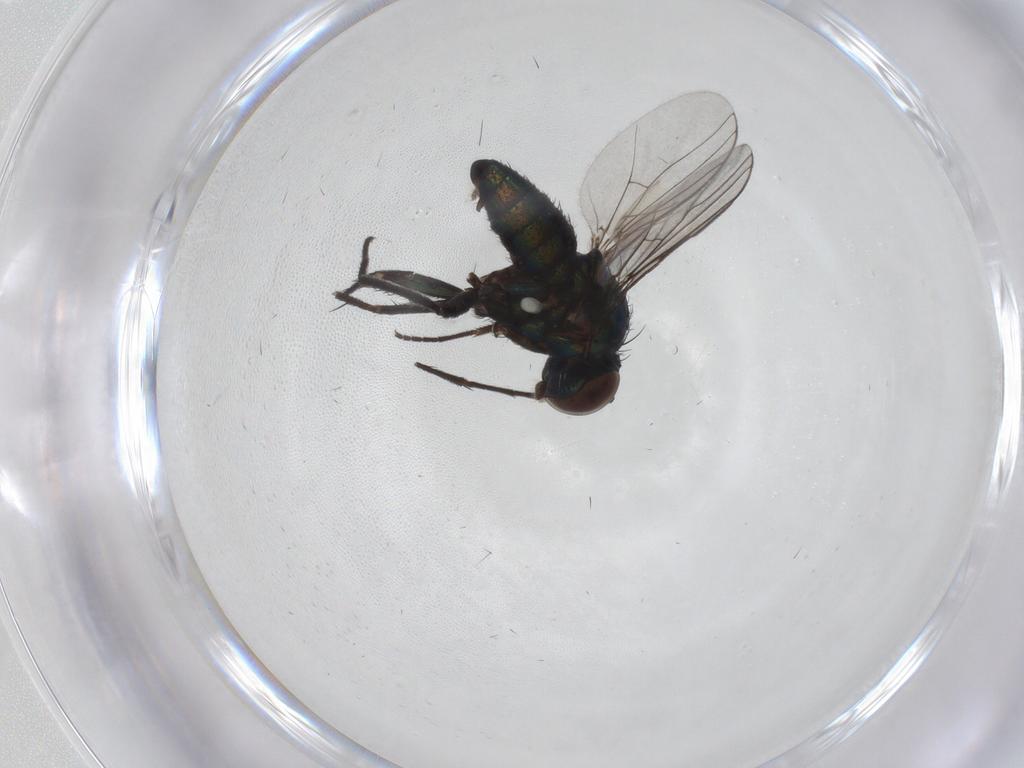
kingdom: Animalia
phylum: Arthropoda
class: Insecta
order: Diptera
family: Dolichopodidae
